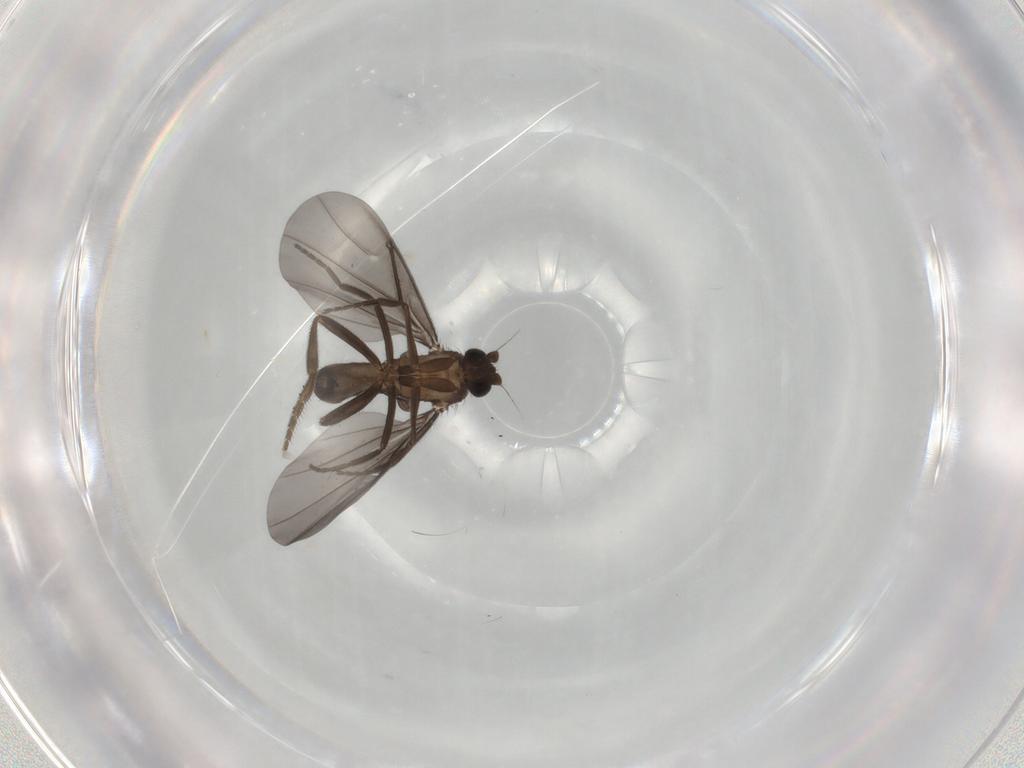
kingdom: Animalia
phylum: Arthropoda
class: Insecta
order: Diptera
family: Phoridae
